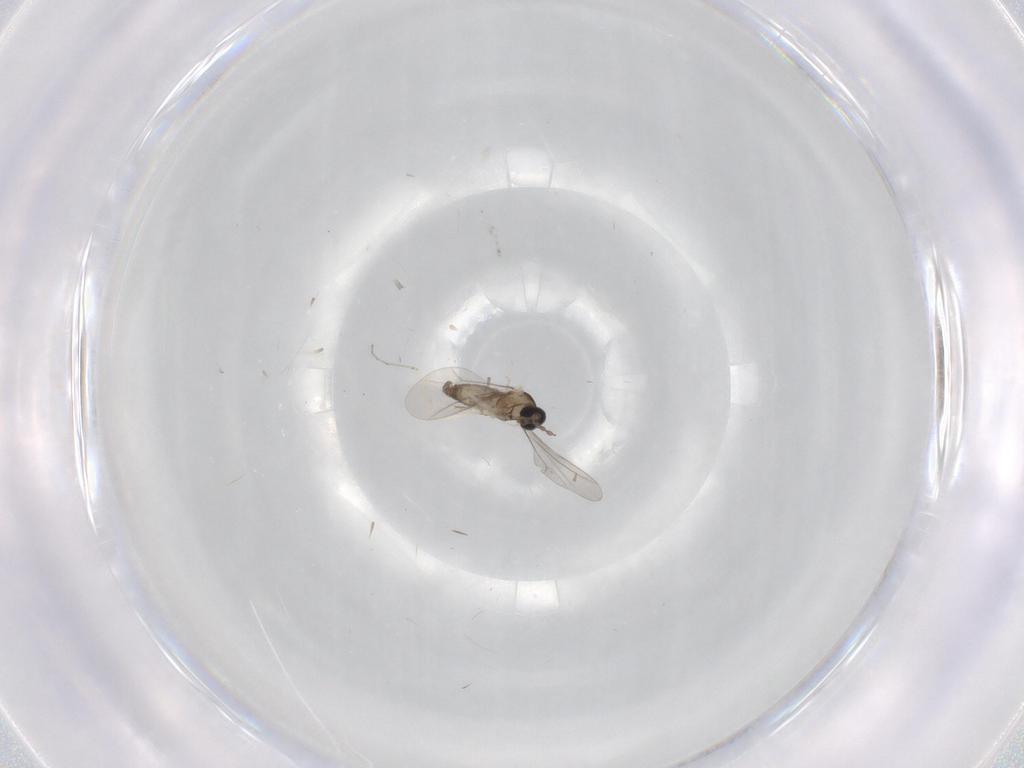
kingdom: Animalia
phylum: Arthropoda
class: Insecta
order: Diptera
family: Cecidomyiidae
